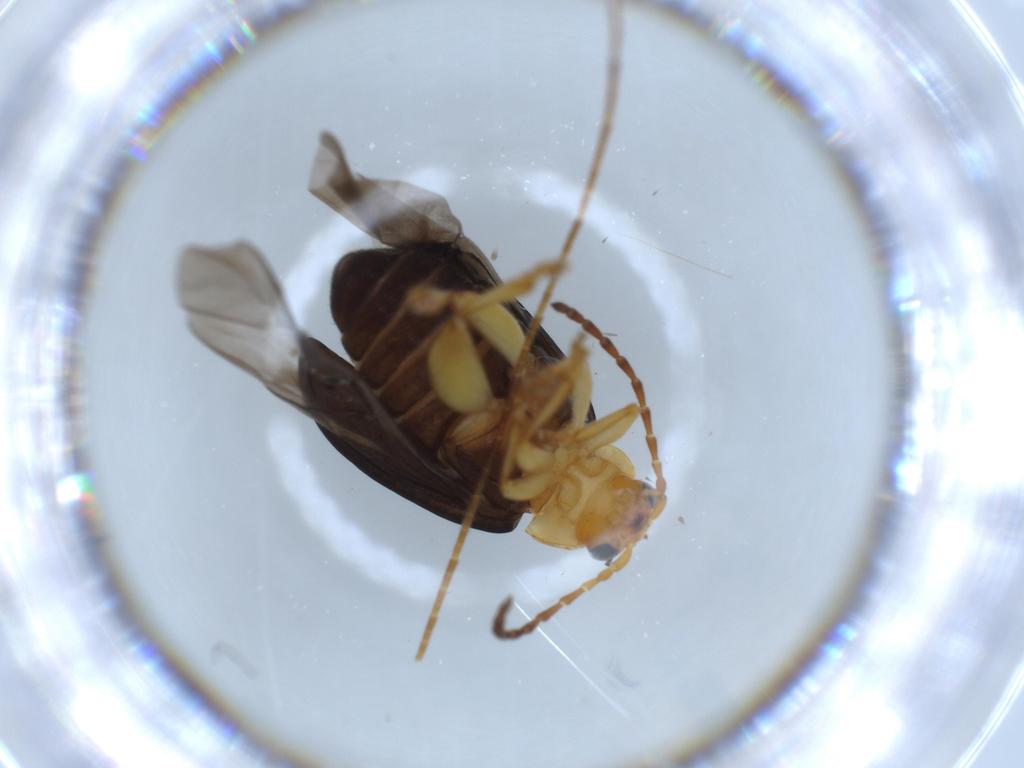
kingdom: Animalia
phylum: Arthropoda
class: Insecta
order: Coleoptera
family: Chrysomelidae
